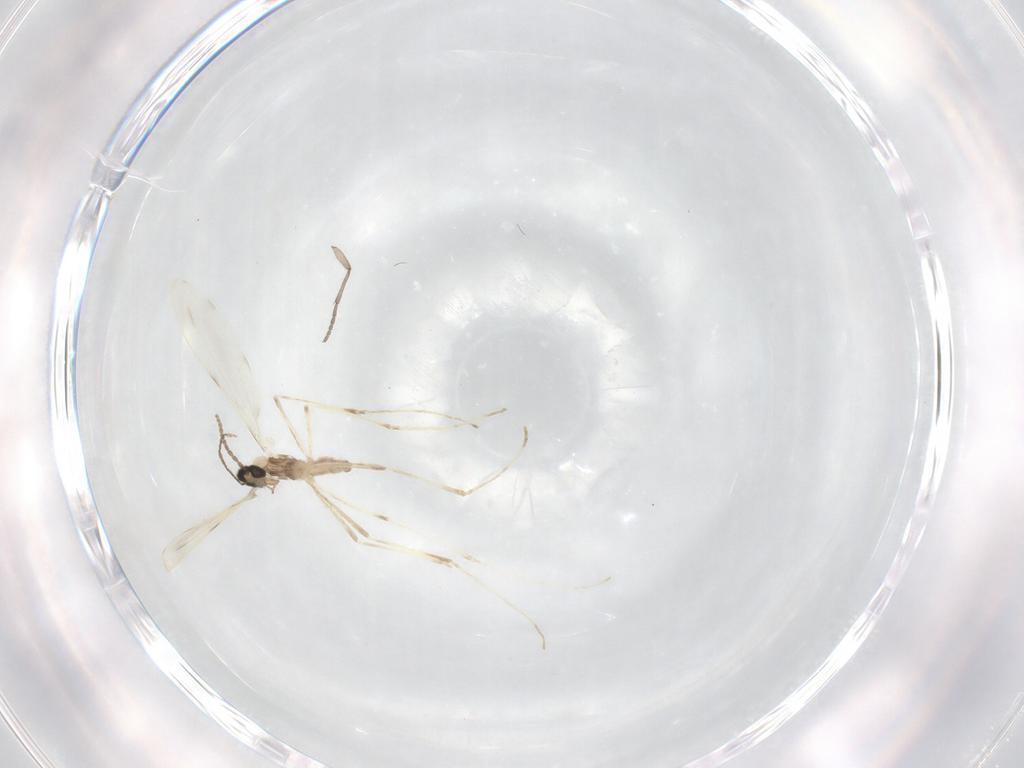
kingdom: Animalia
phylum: Arthropoda
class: Insecta
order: Diptera
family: Sciaridae
